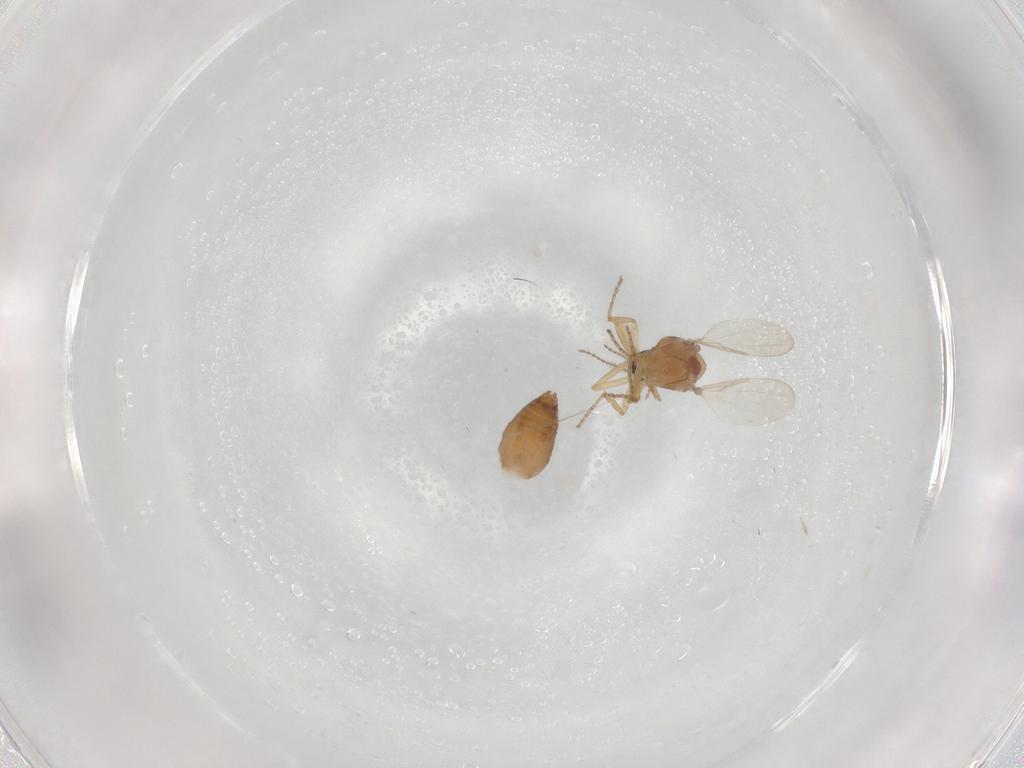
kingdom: Animalia
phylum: Arthropoda
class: Insecta
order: Diptera
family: Ceratopogonidae
